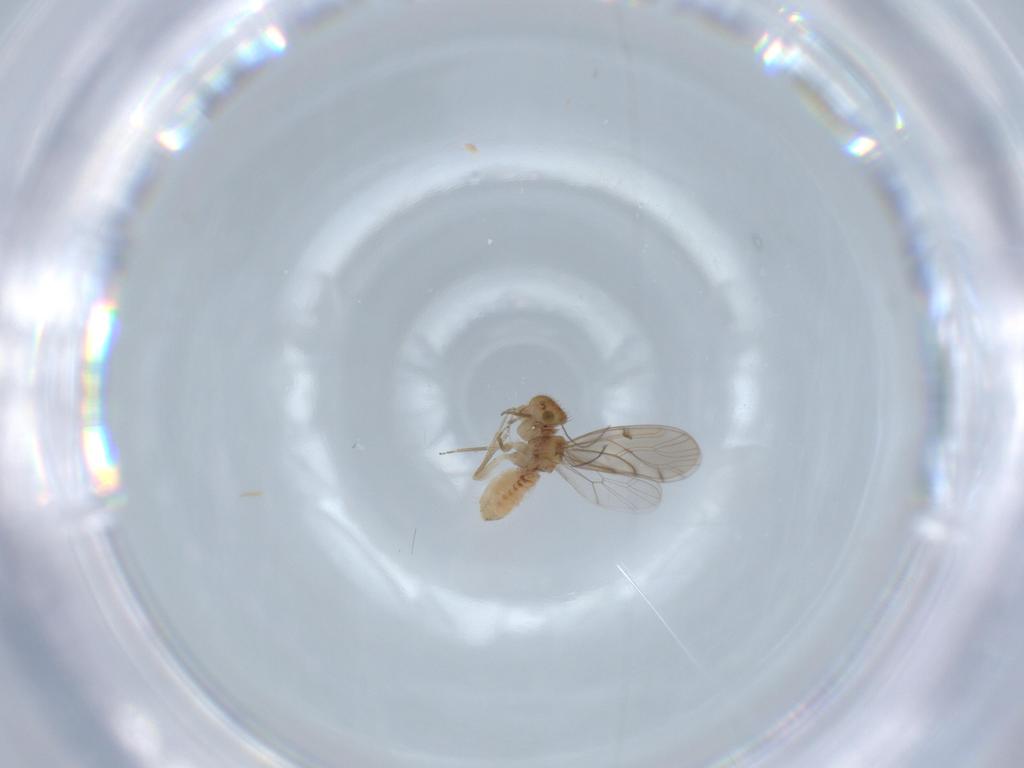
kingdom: Animalia
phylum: Arthropoda
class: Insecta
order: Psocodea
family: Ectopsocidae
